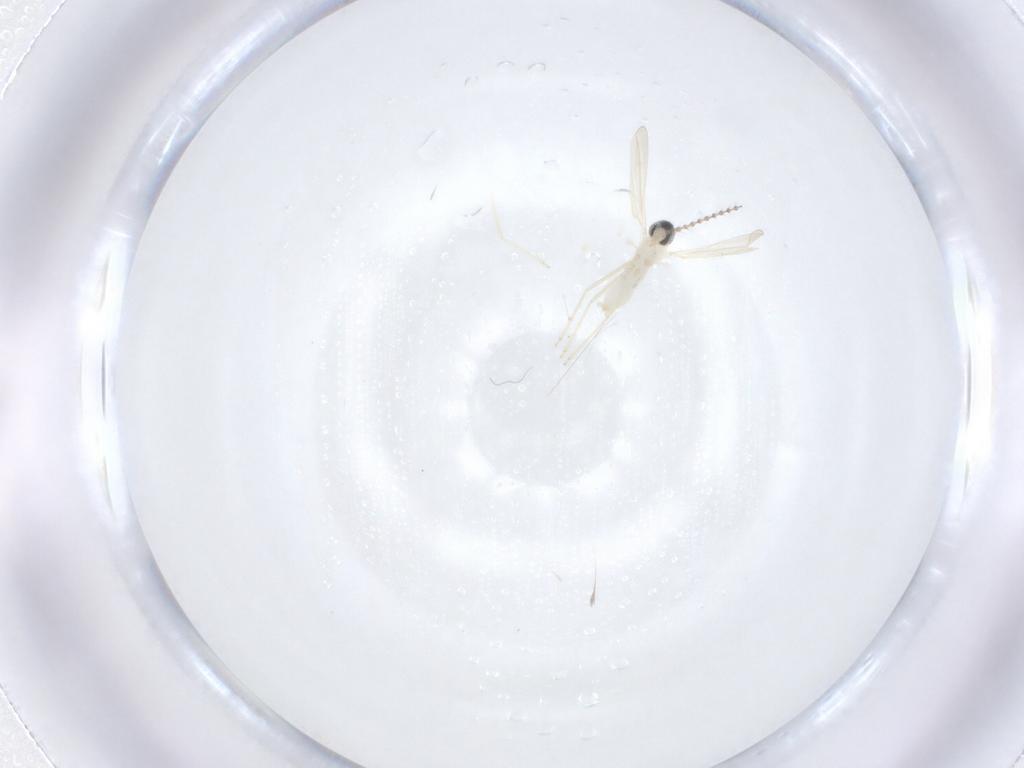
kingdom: Animalia
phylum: Arthropoda
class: Insecta
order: Diptera
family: Cecidomyiidae
